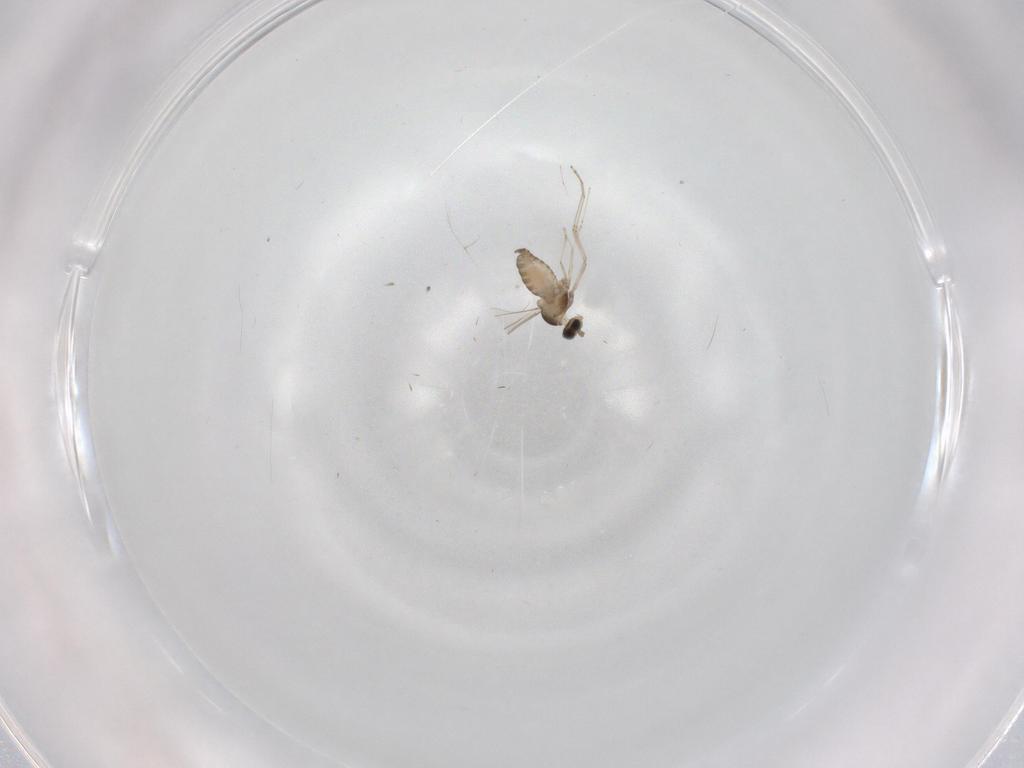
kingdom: Animalia
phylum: Arthropoda
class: Insecta
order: Diptera
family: Cecidomyiidae
